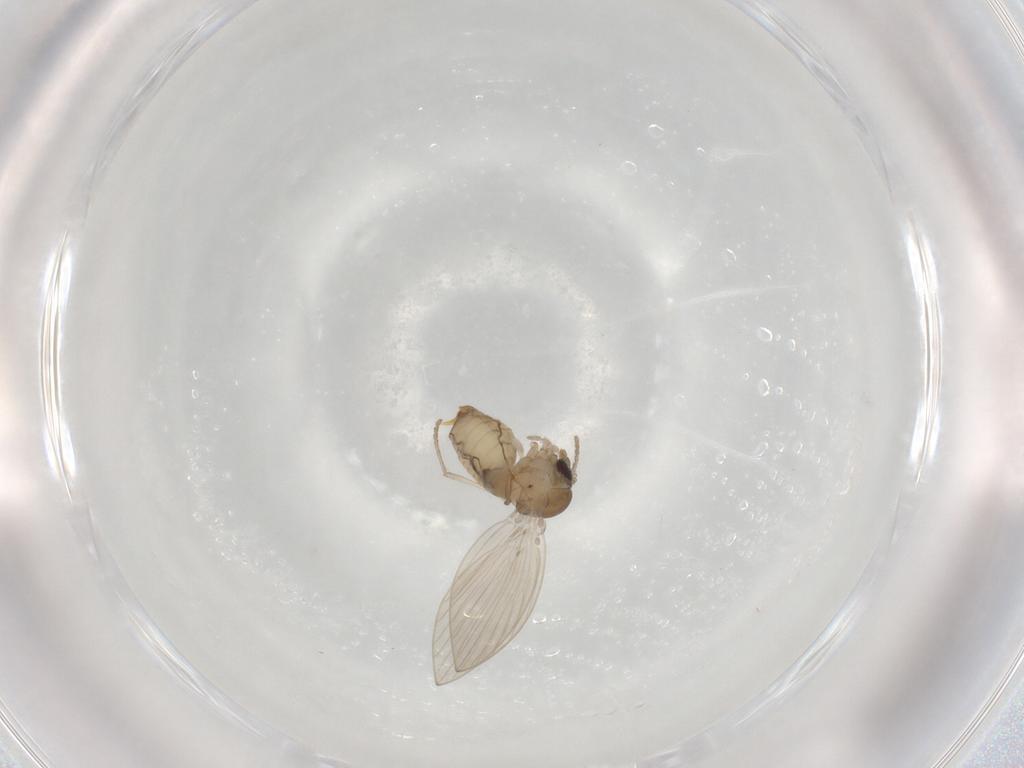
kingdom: Animalia
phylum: Arthropoda
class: Insecta
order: Diptera
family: Psychodidae
